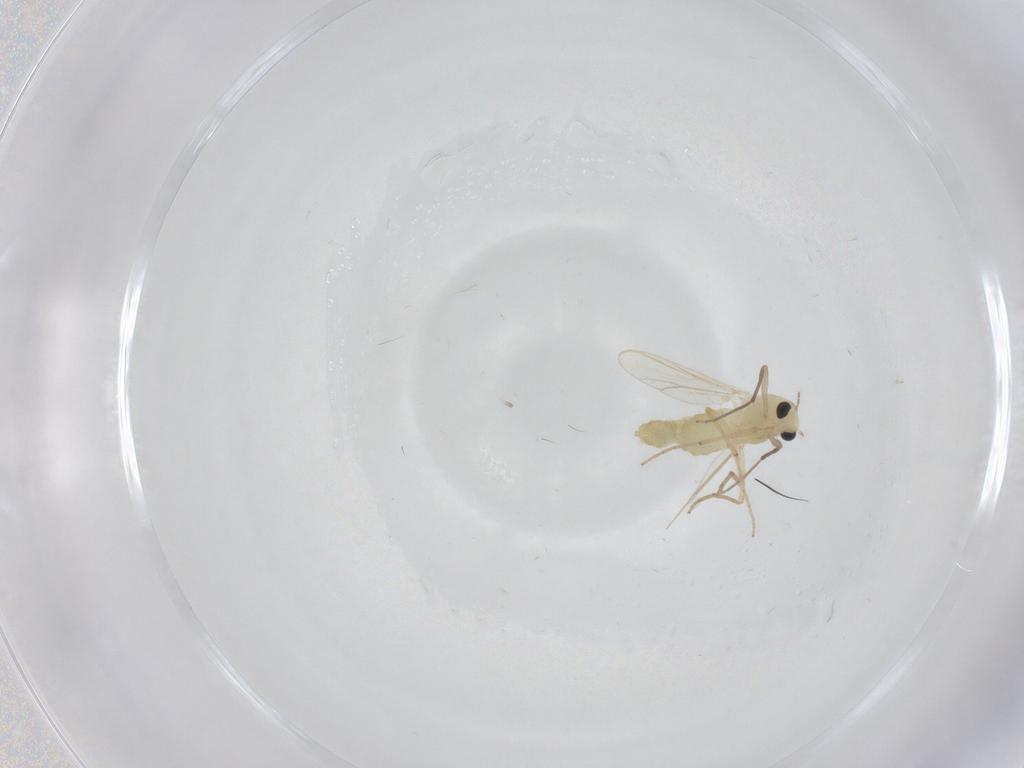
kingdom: Animalia
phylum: Arthropoda
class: Insecta
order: Diptera
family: Chironomidae
